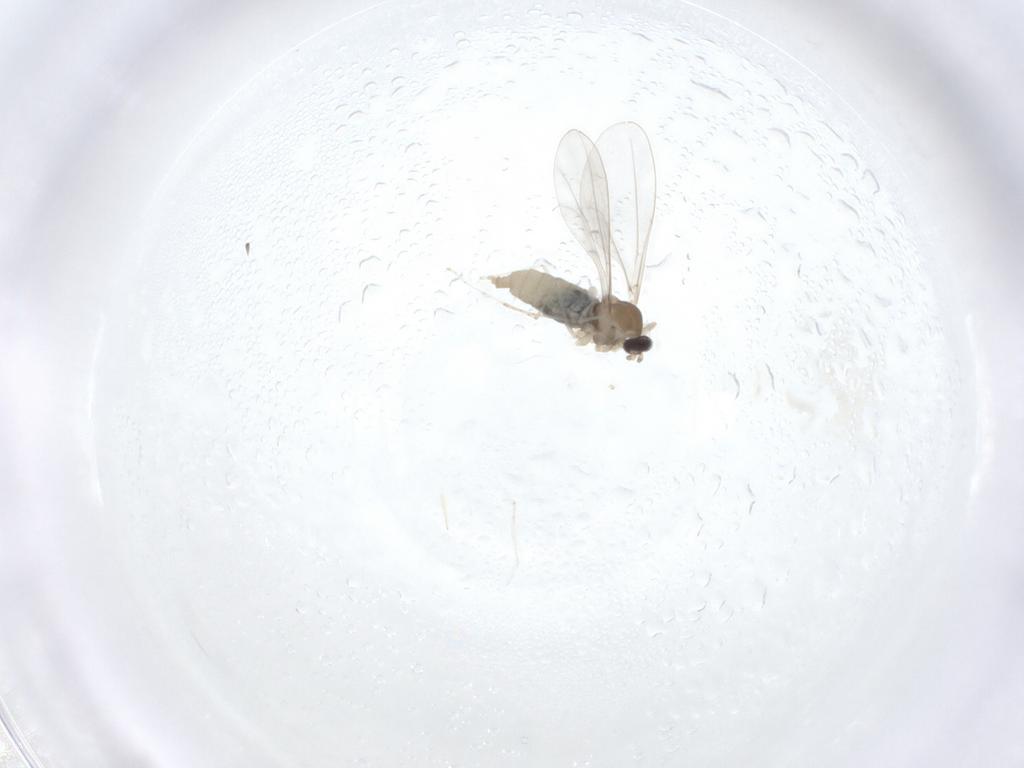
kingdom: Animalia
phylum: Arthropoda
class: Insecta
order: Diptera
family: Cecidomyiidae
